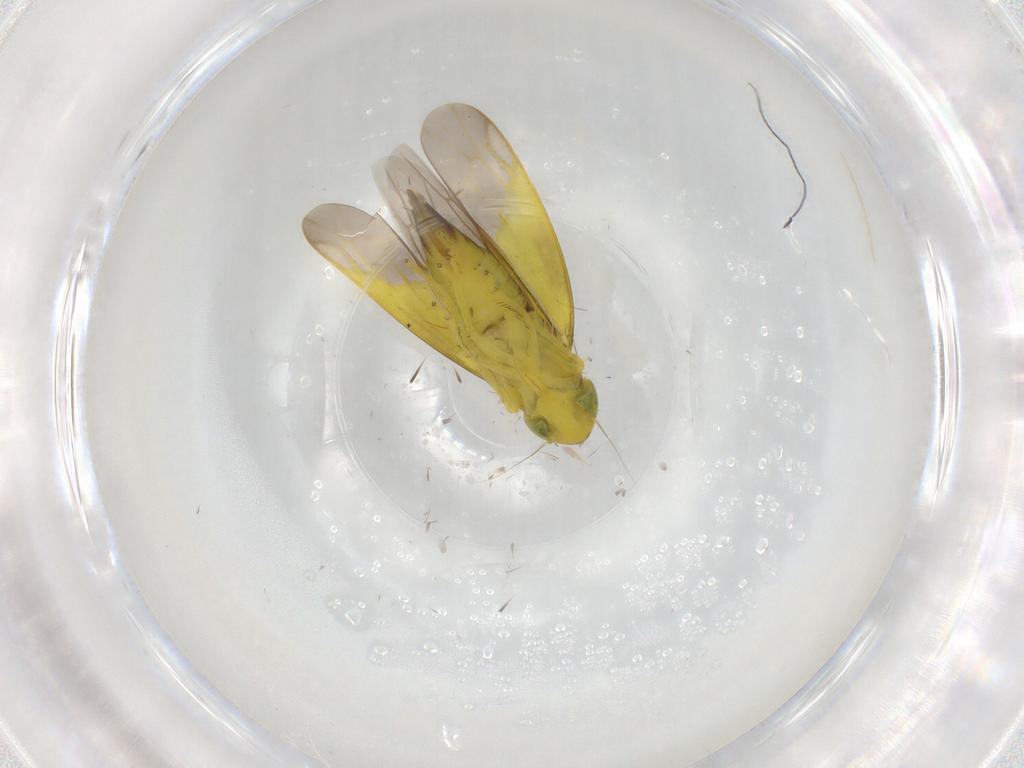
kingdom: Animalia
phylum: Arthropoda
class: Insecta
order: Hemiptera
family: Cicadellidae
